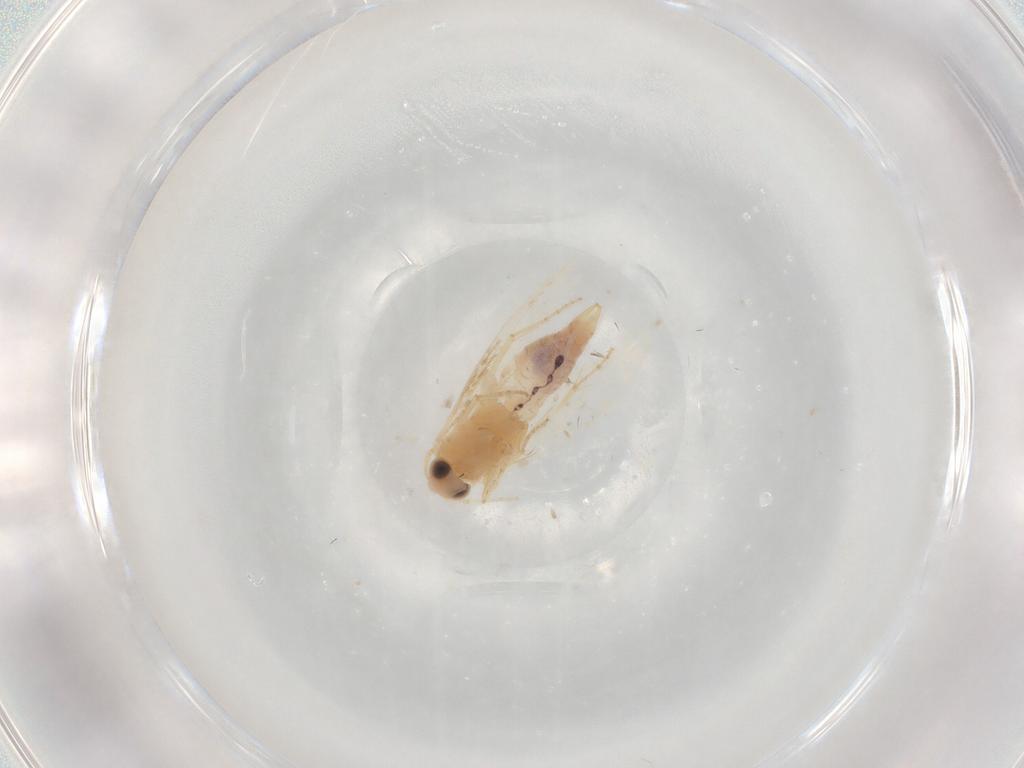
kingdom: Animalia
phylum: Arthropoda
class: Insecta
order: Lepidoptera
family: Bucculatricidae
